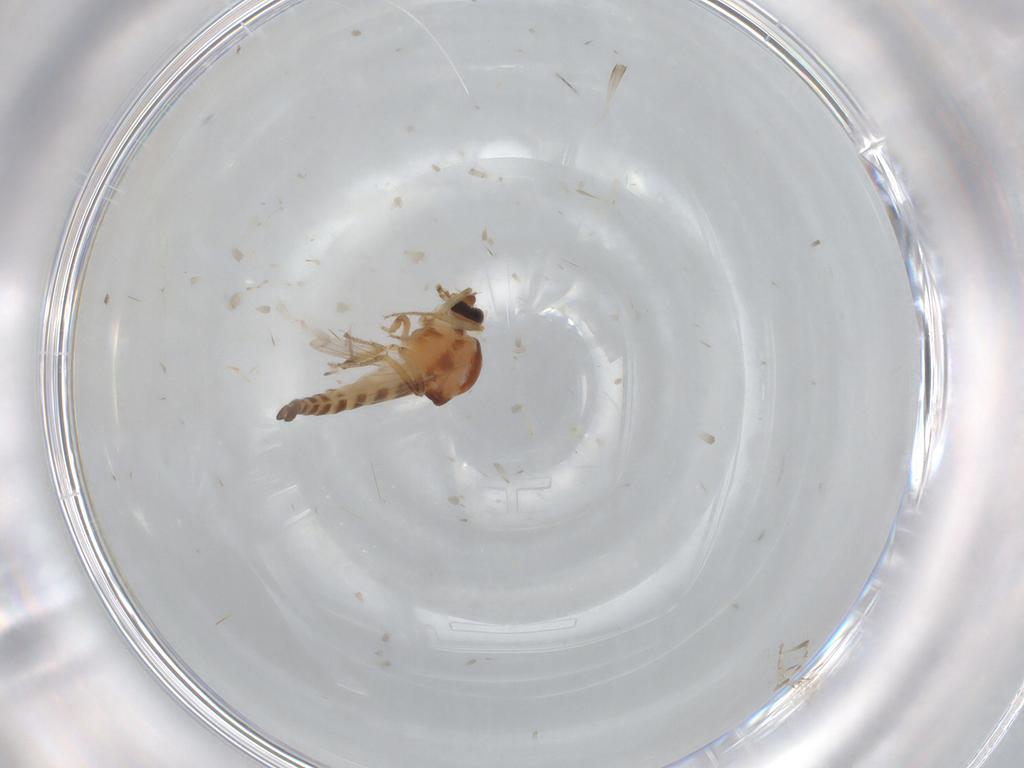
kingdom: Animalia
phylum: Arthropoda
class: Insecta
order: Diptera
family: Ceratopogonidae
